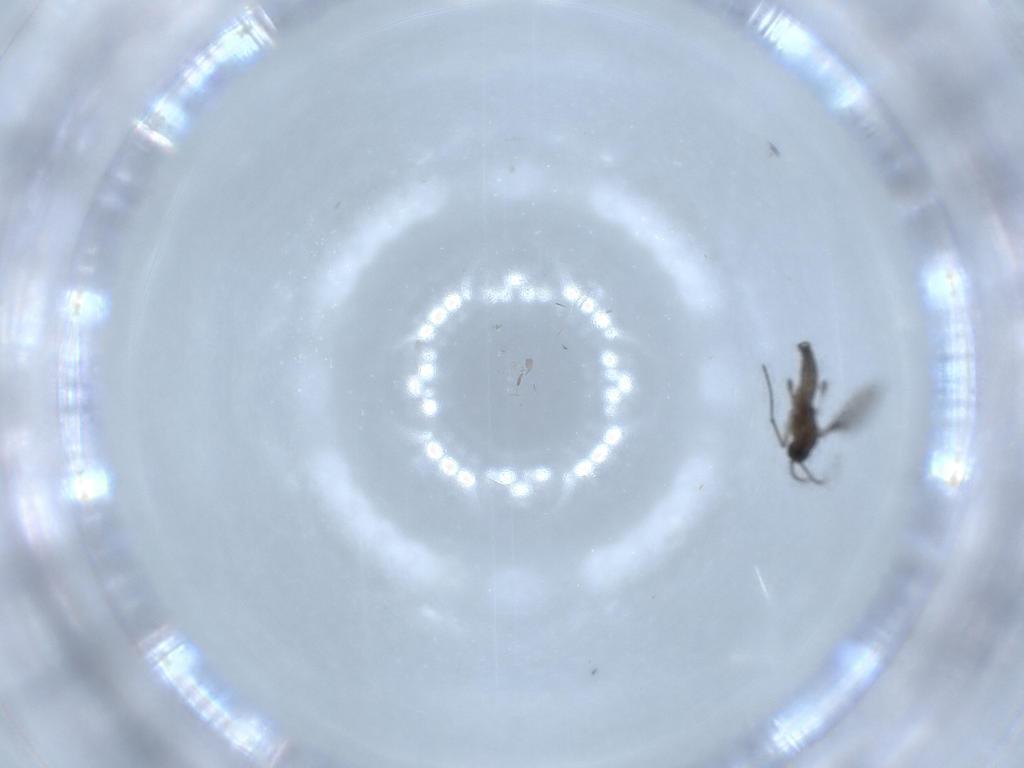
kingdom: Animalia
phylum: Arthropoda
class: Insecta
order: Diptera
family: Sciaridae
